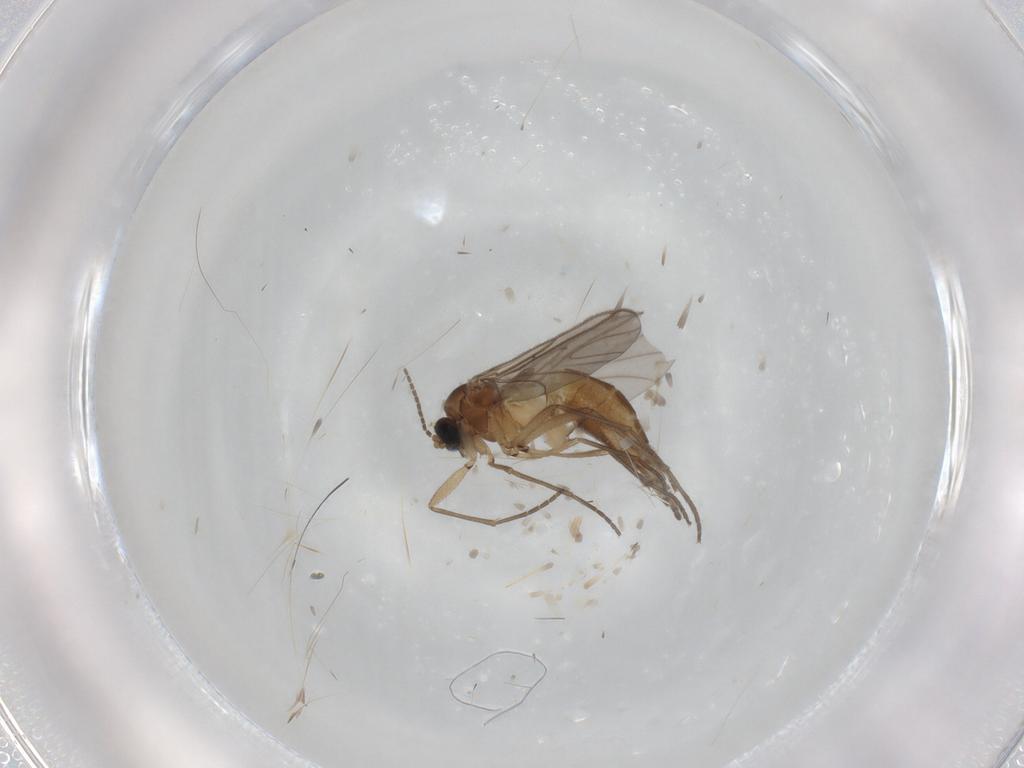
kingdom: Animalia
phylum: Arthropoda
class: Insecta
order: Diptera
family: Sciaridae
